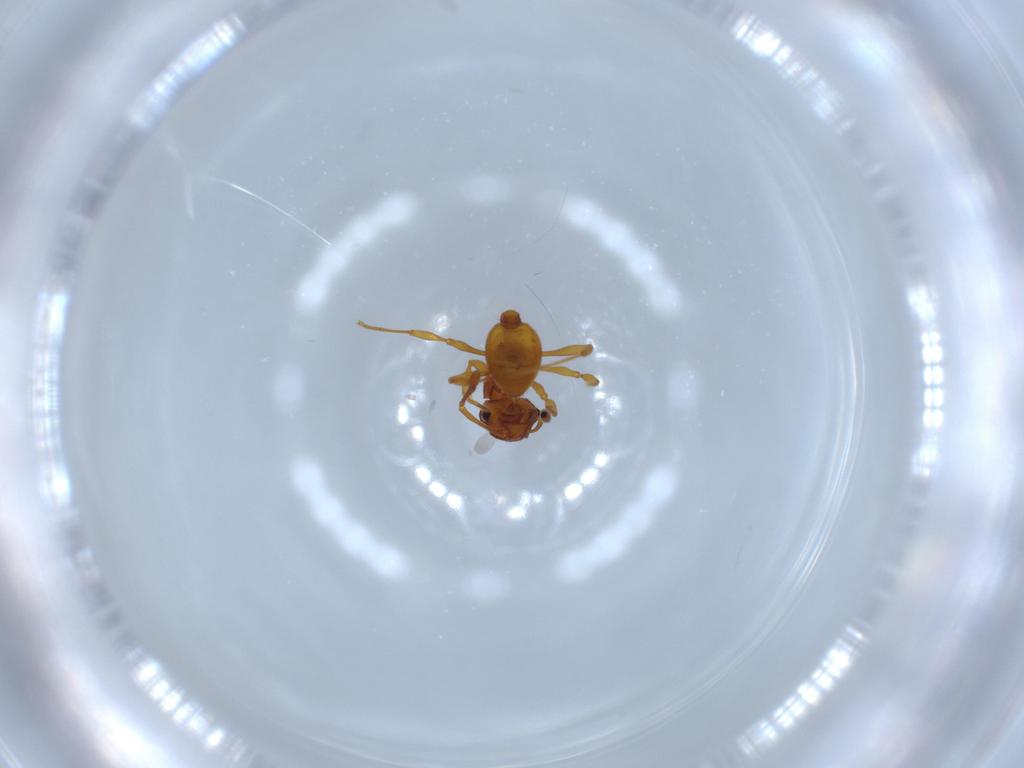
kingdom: Animalia
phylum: Arthropoda
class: Insecta
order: Hymenoptera
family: Formicidae
